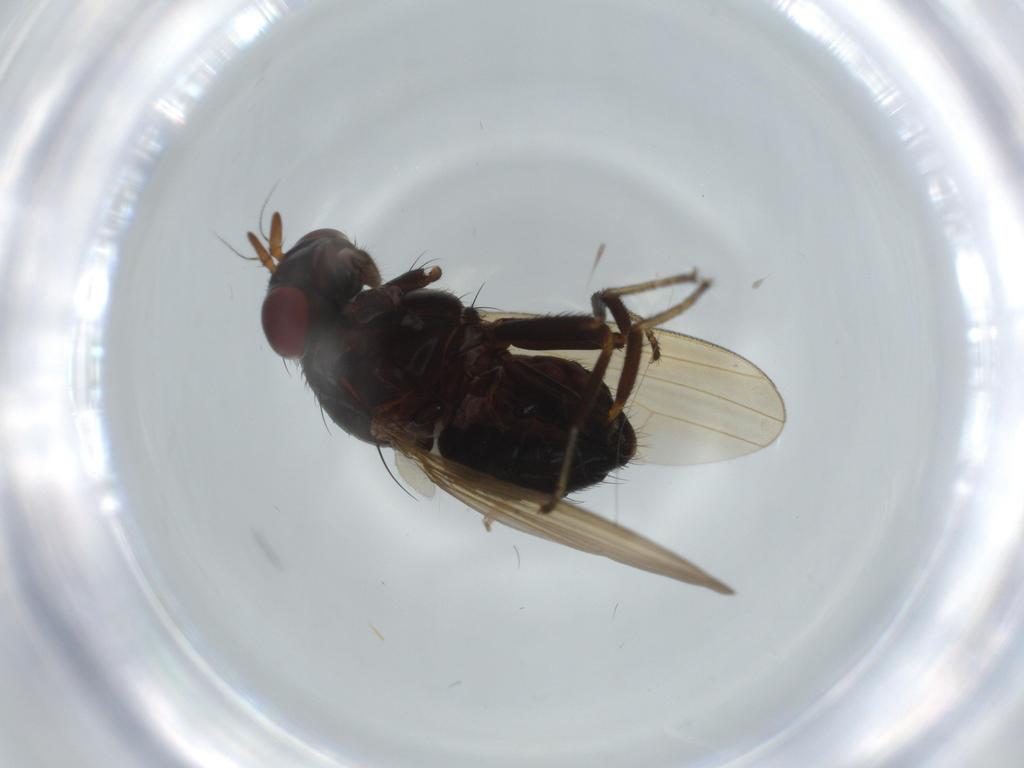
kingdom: Animalia
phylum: Arthropoda
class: Insecta
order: Diptera
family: Lauxaniidae
